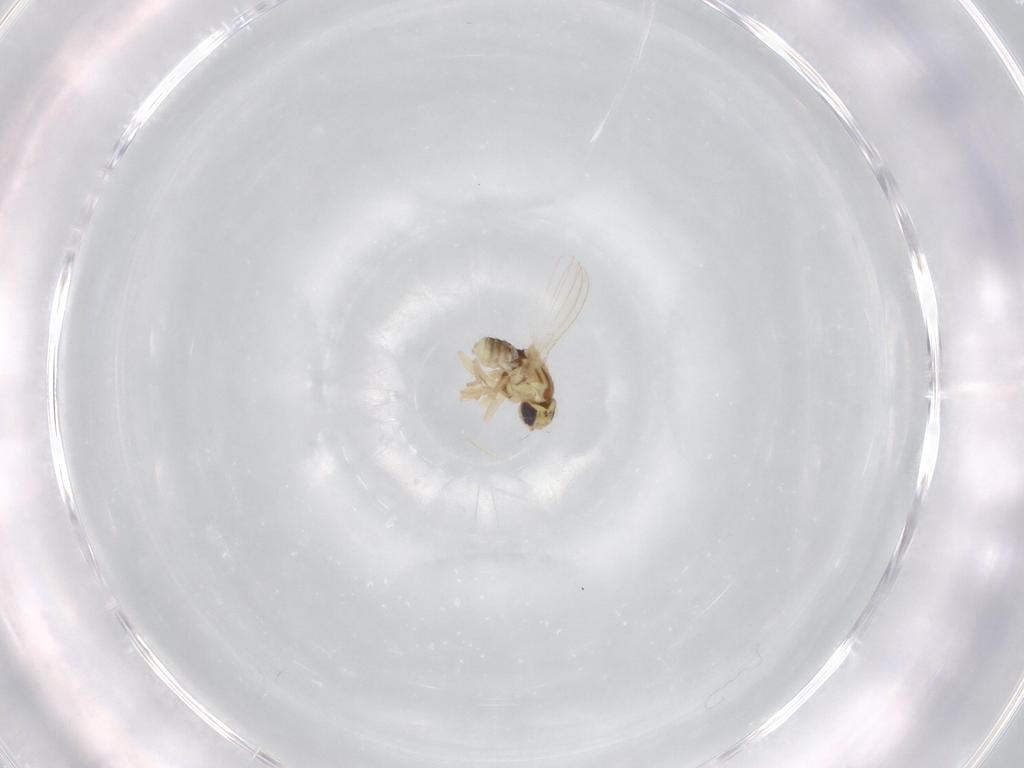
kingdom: Animalia
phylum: Arthropoda
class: Insecta
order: Diptera
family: Chyromyidae
